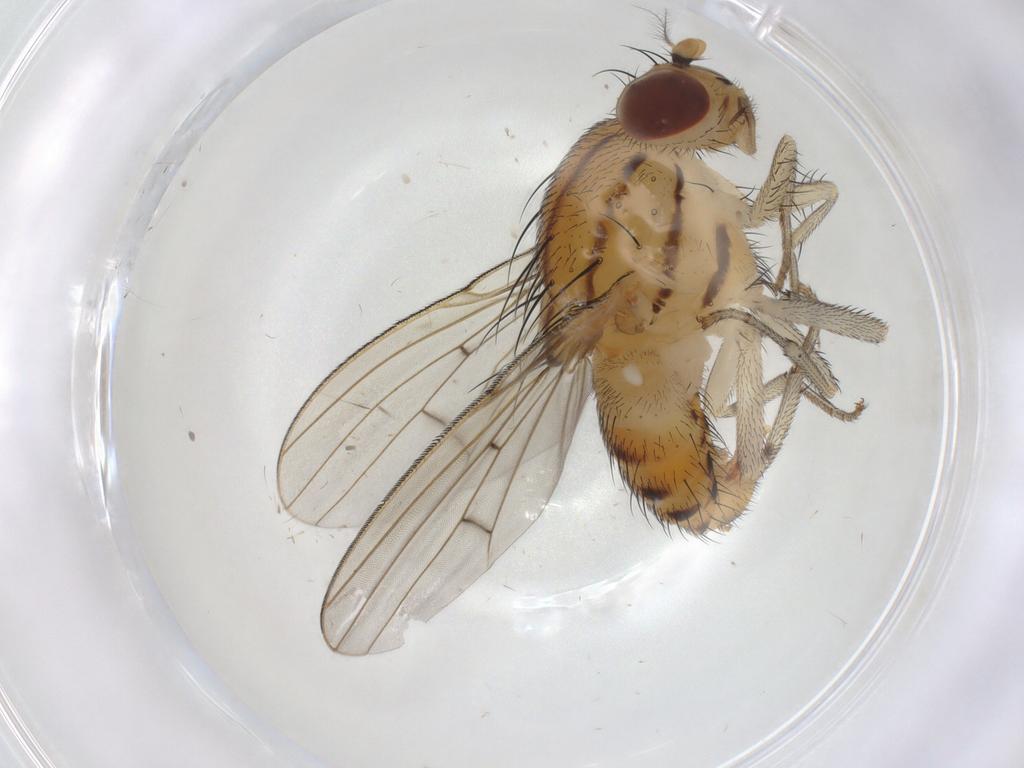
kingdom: Animalia
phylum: Arthropoda
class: Insecta
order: Diptera
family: Lauxaniidae
